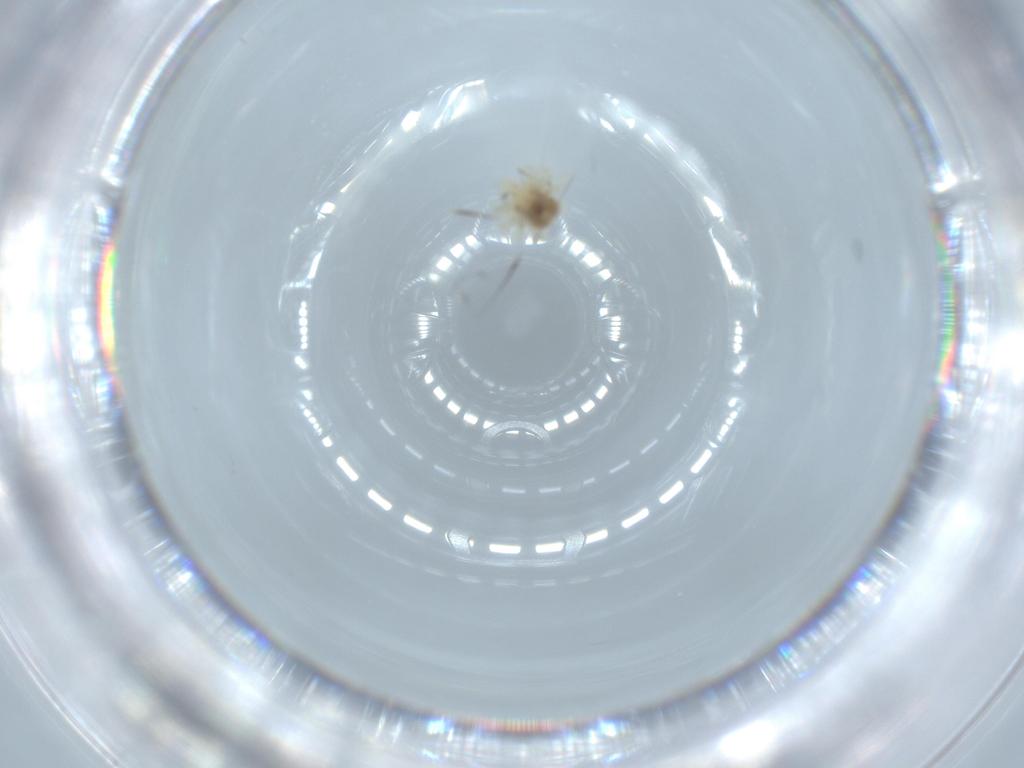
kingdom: Animalia
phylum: Arthropoda
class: Arachnida
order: Trombidiformes
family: Anystidae
